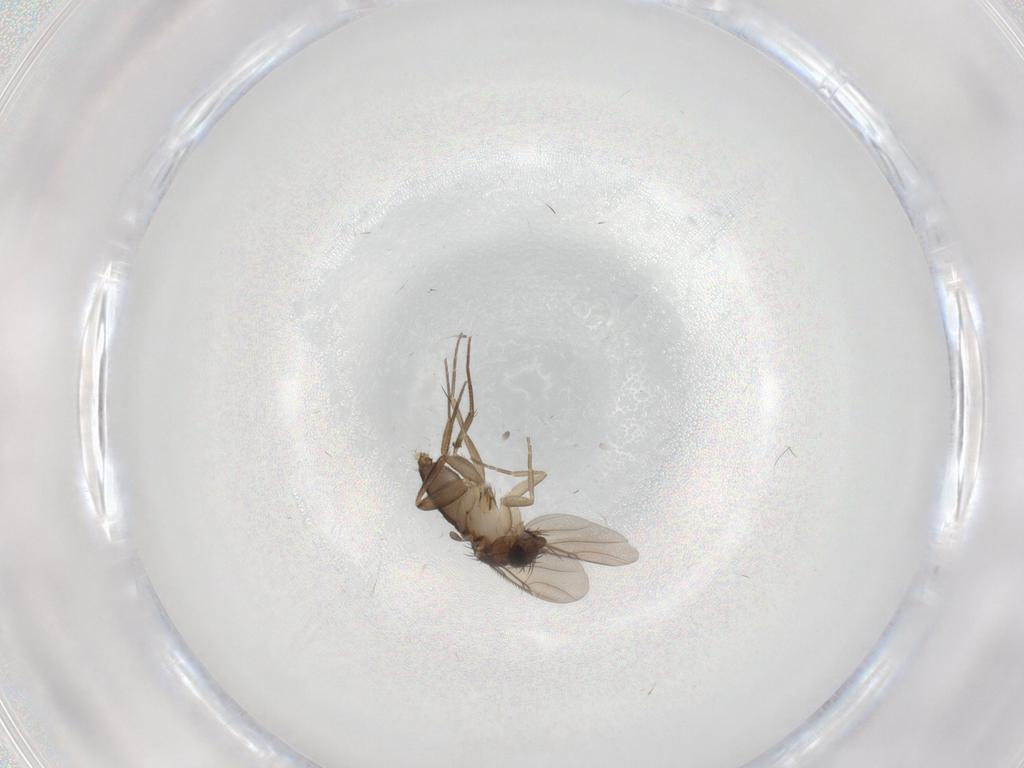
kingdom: Animalia
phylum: Arthropoda
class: Insecta
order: Diptera
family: Phoridae
